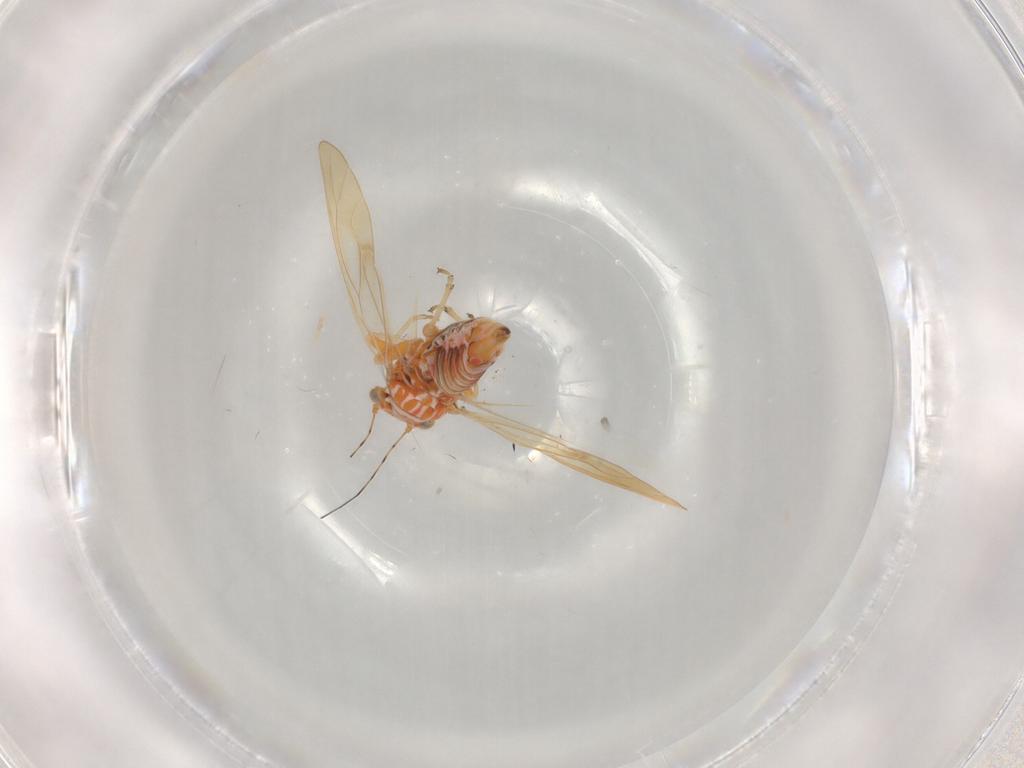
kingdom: Animalia
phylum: Arthropoda
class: Insecta
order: Hemiptera
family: Psyllidae
